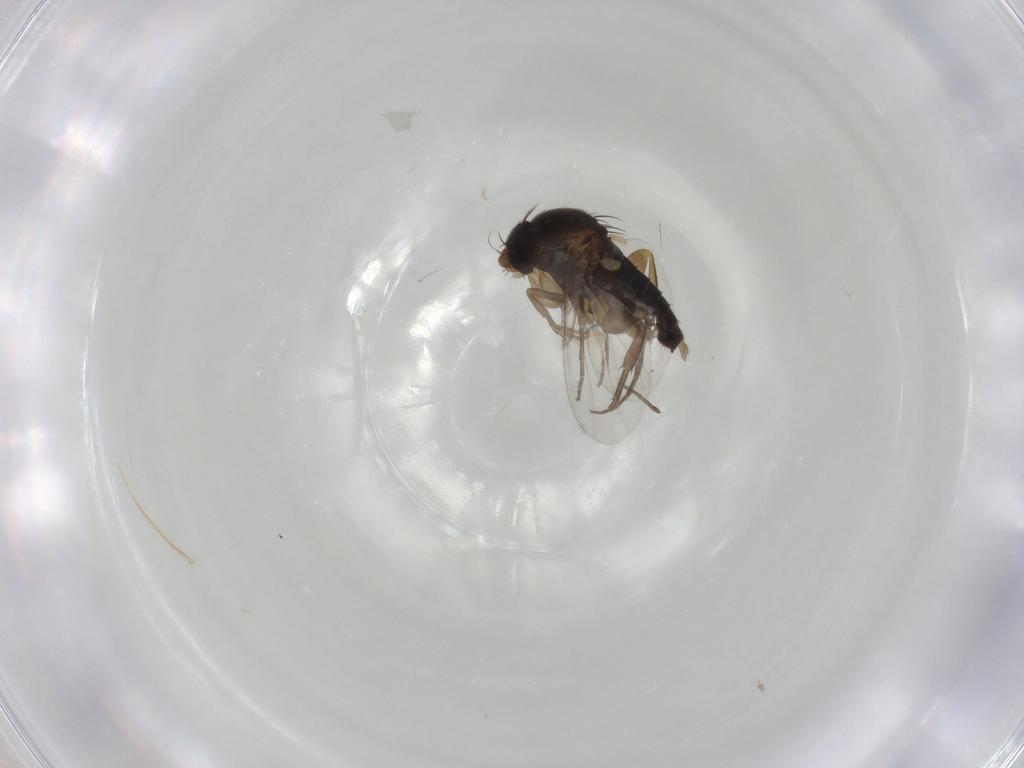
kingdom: Animalia
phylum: Arthropoda
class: Insecta
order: Diptera
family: Phoridae
